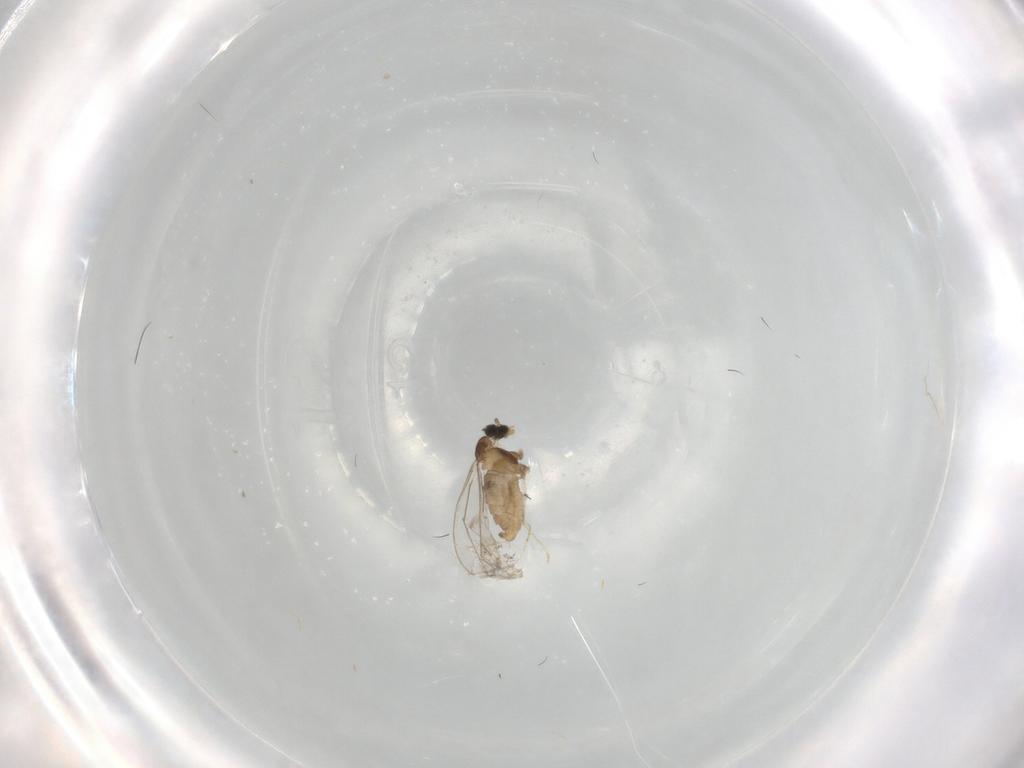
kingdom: Animalia
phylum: Arthropoda
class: Insecta
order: Diptera
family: Cecidomyiidae
